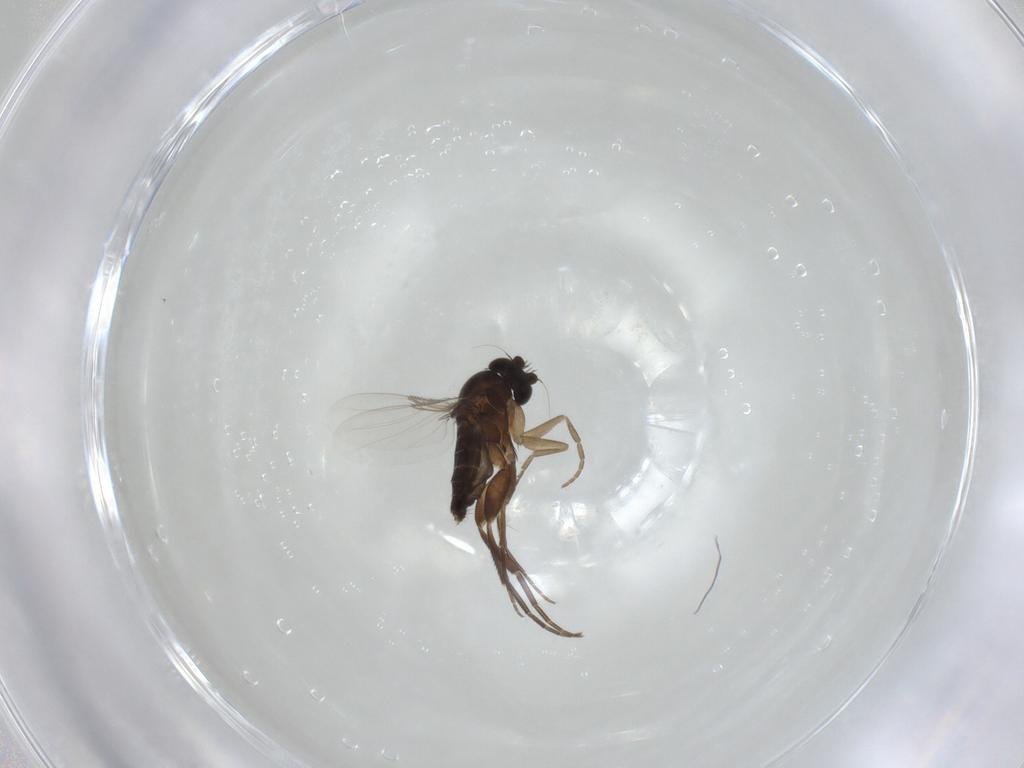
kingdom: Animalia
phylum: Arthropoda
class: Insecta
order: Diptera
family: Phoridae
